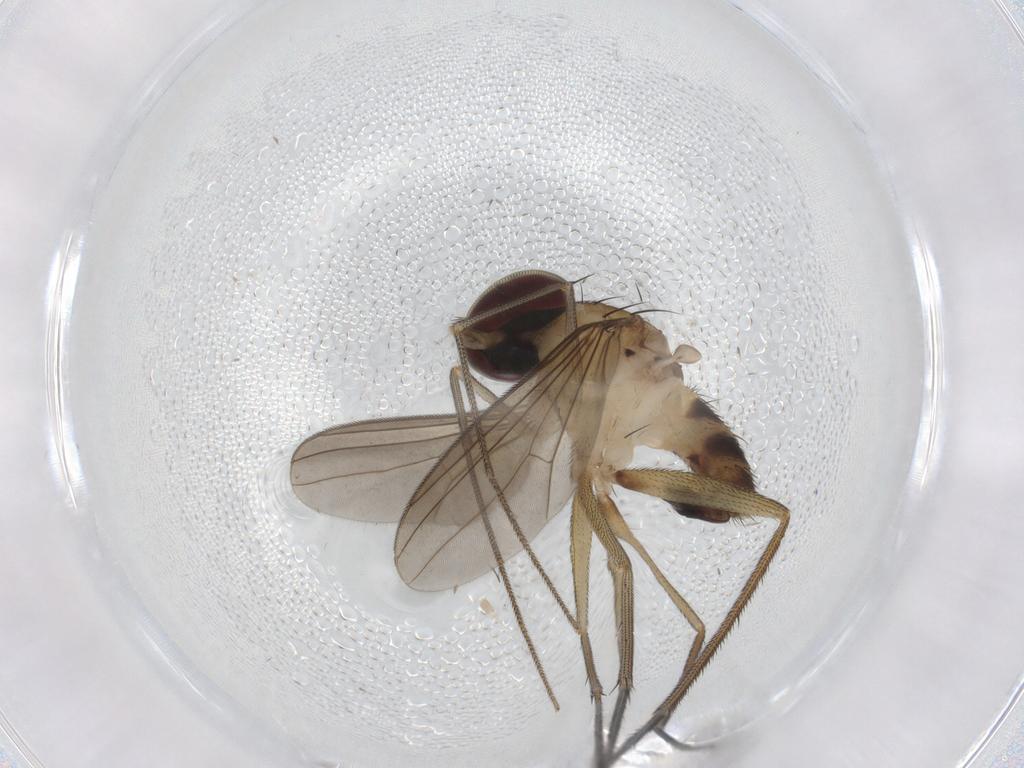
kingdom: Animalia
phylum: Arthropoda
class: Insecta
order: Diptera
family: Dolichopodidae
